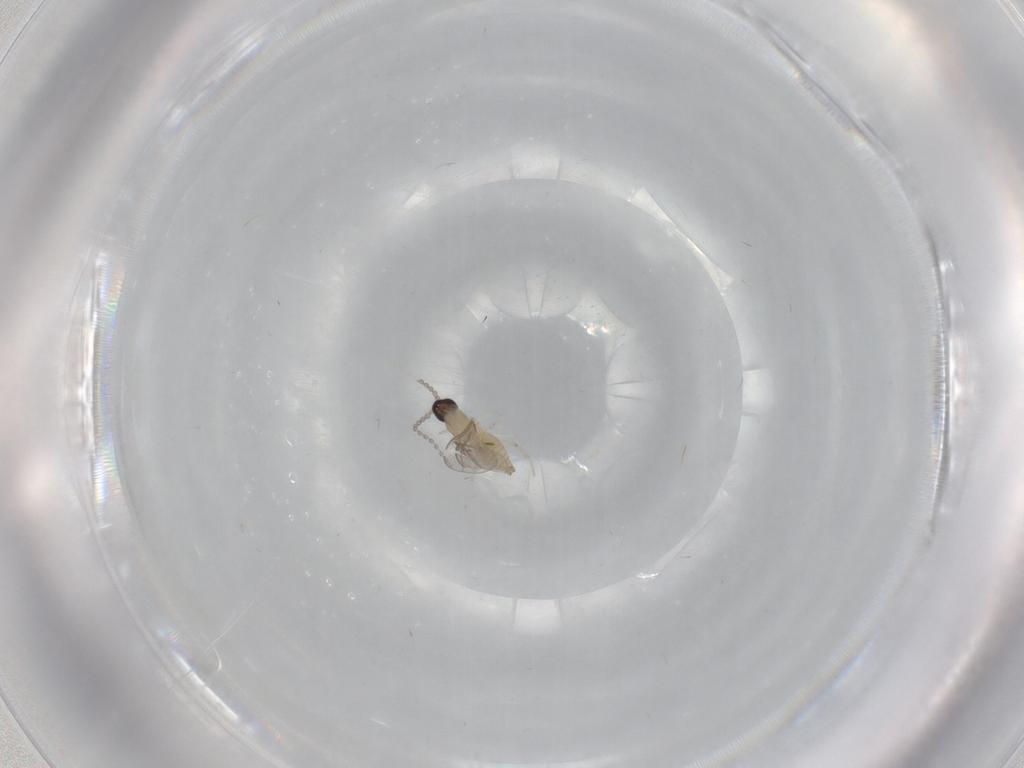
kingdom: Animalia
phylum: Arthropoda
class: Insecta
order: Diptera
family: Cecidomyiidae
